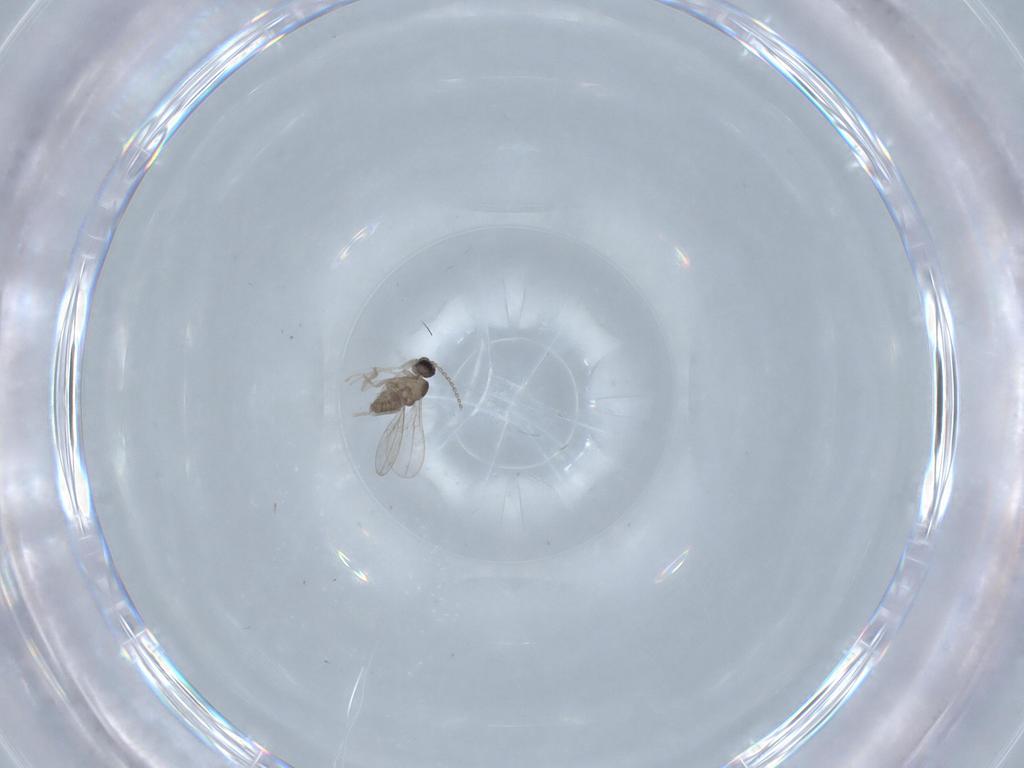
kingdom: Animalia
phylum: Arthropoda
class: Insecta
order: Diptera
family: Cecidomyiidae
